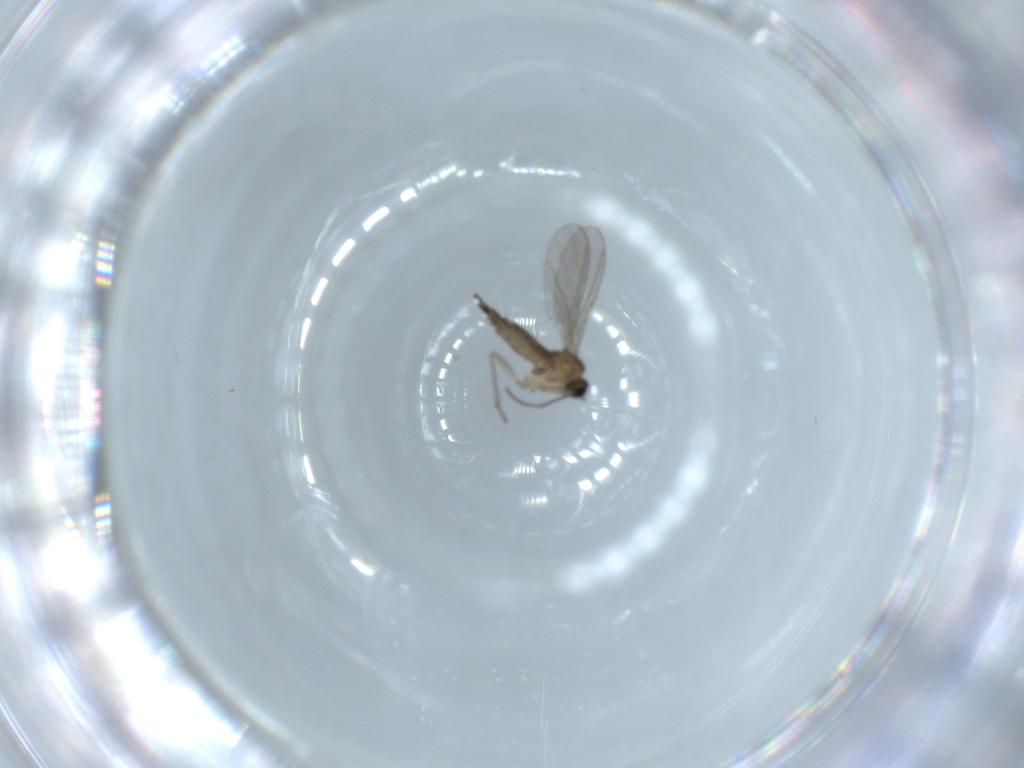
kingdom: Animalia
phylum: Arthropoda
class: Insecta
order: Diptera
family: Sciaridae
